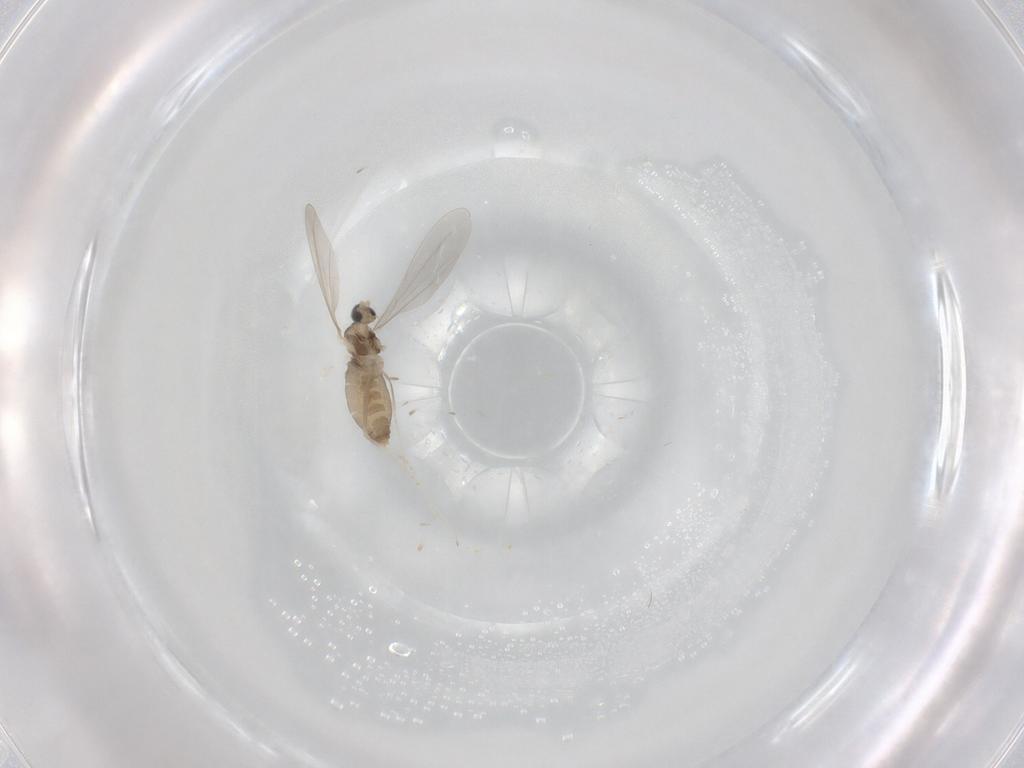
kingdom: Animalia
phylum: Arthropoda
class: Insecta
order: Diptera
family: Cecidomyiidae
